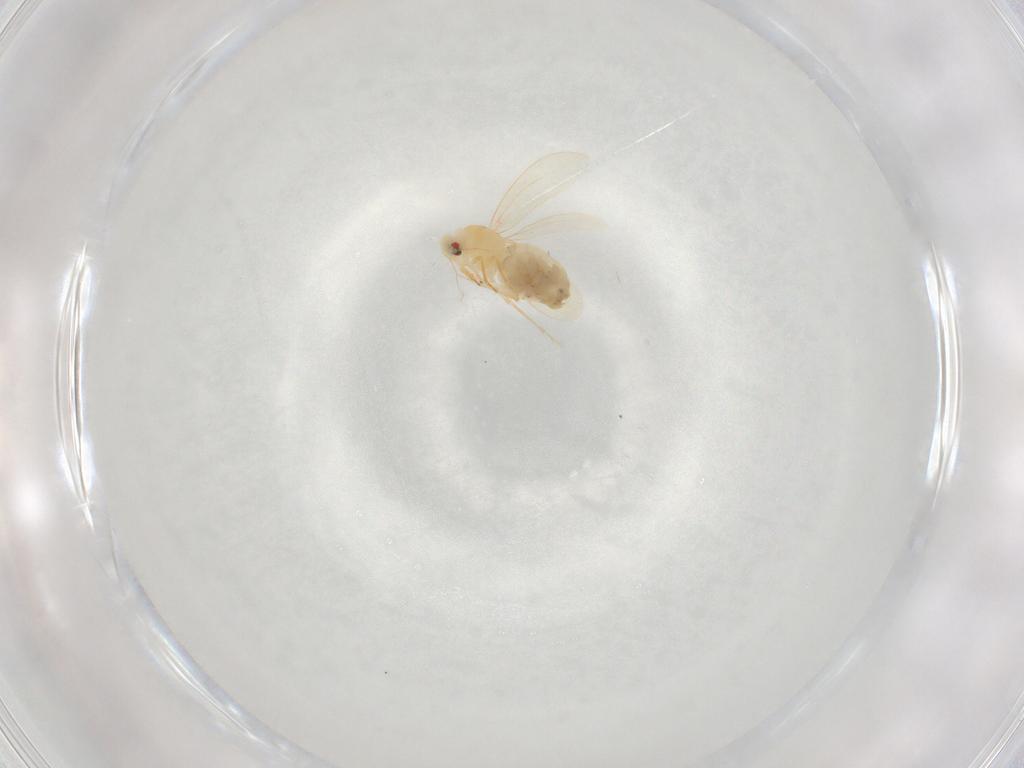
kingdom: Animalia
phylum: Arthropoda
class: Insecta
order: Hemiptera
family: Aleyrodidae
